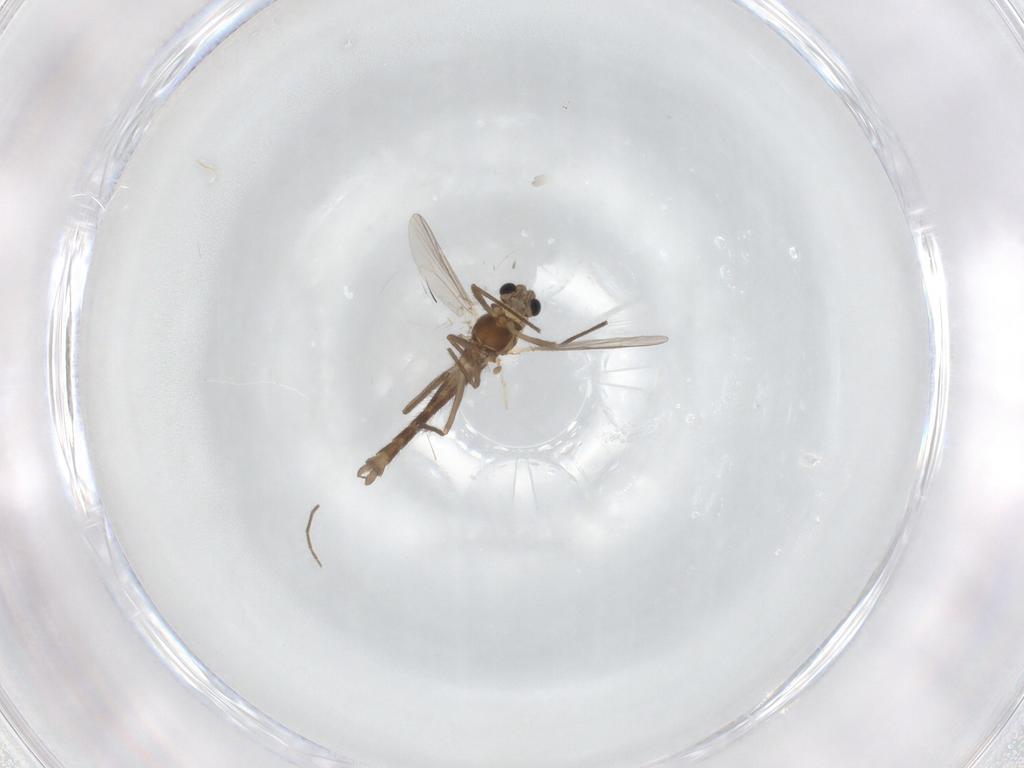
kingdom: Animalia
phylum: Arthropoda
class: Insecta
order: Diptera
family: Chironomidae
